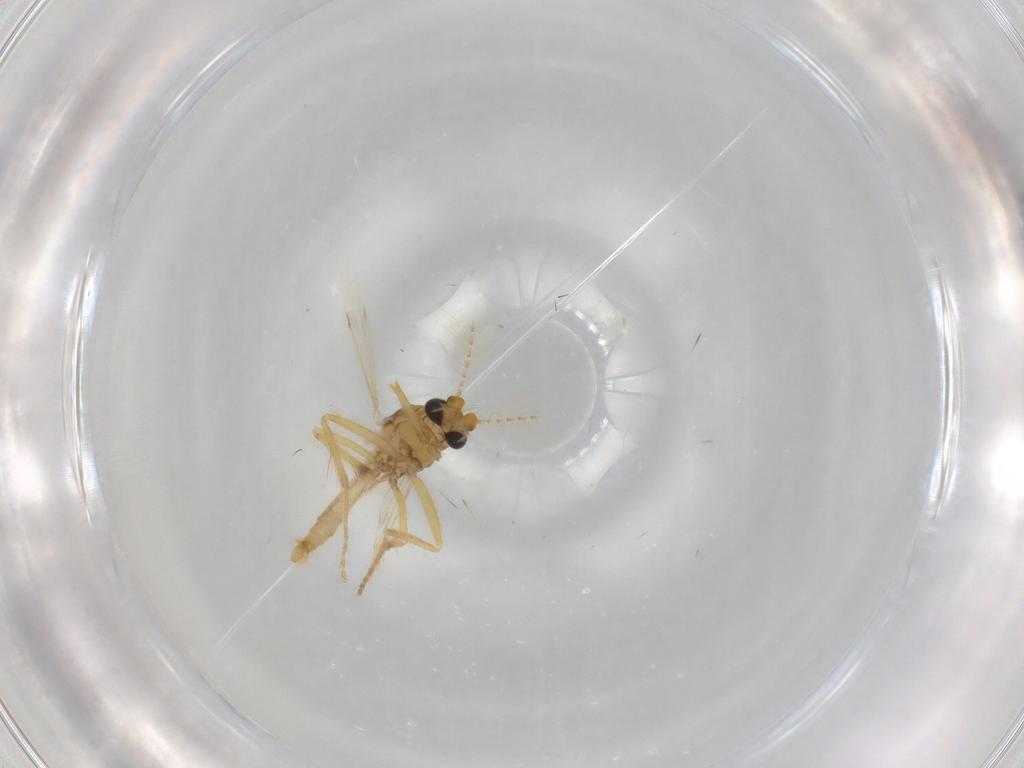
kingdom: Animalia
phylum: Arthropoda
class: Insecta
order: Diptera
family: Corethrellidae
